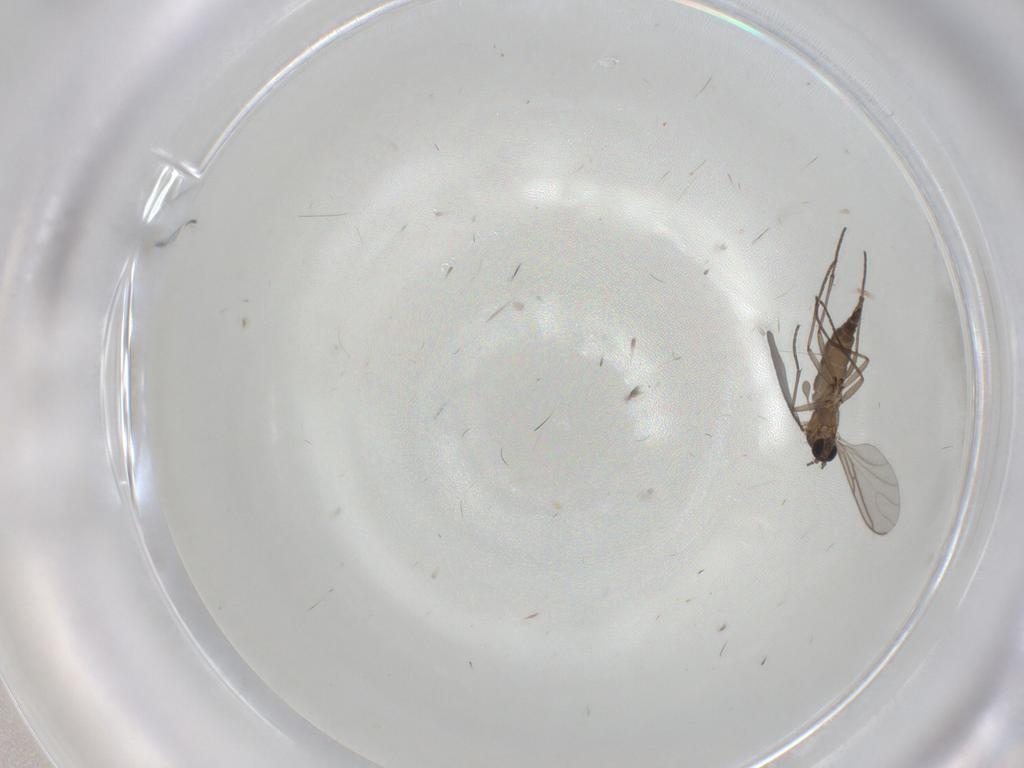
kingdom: Animalia
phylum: Arthropoda
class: Insecta
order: Diptera
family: Sciaridae
